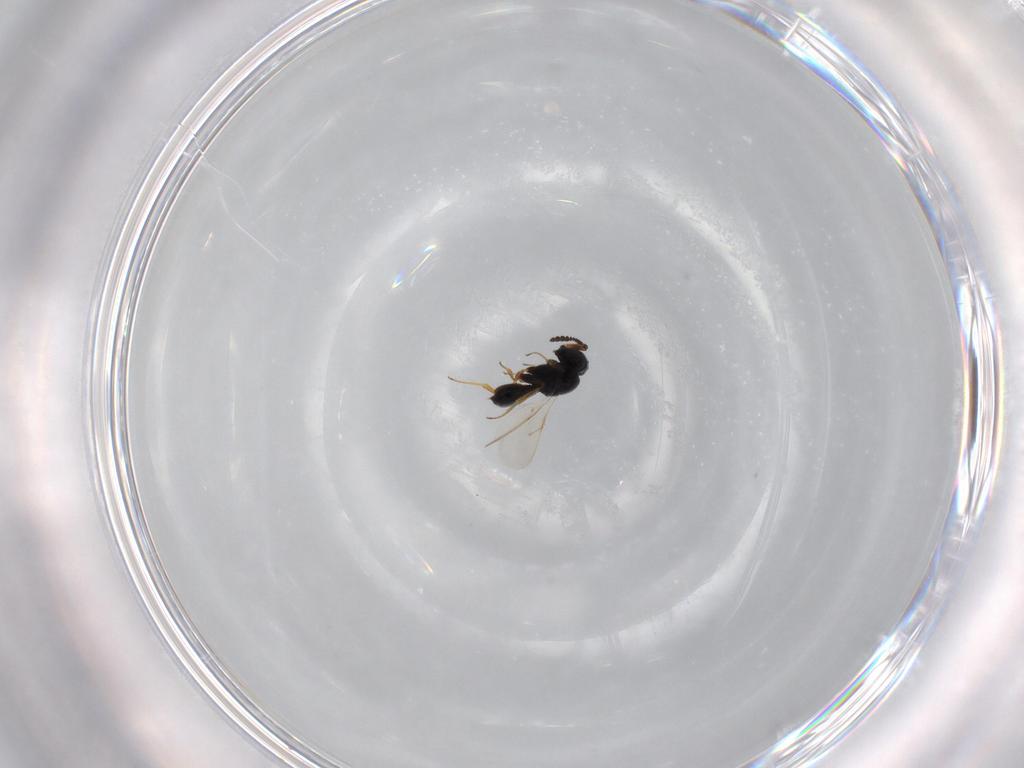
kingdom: Animalia
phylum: Arthropoda
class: Insecta
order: Hymenoptera
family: Scelionidae
